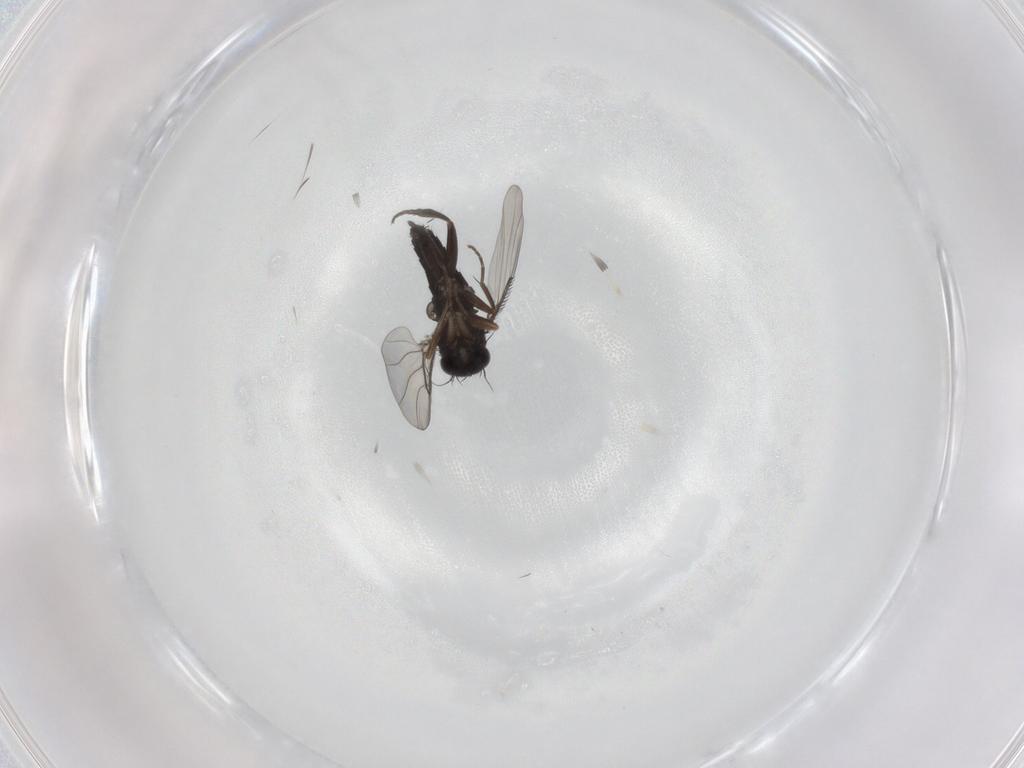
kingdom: Animalia
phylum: Arthropoda
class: Insecta
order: Diptera
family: Phoridae
